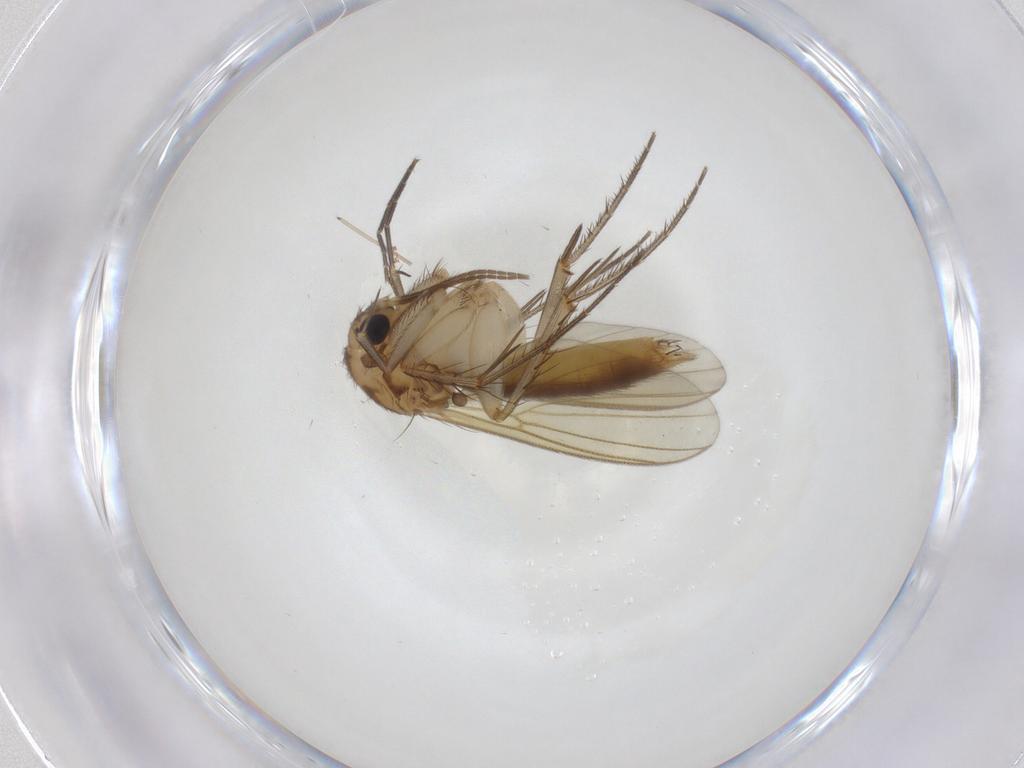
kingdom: Animalia
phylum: Arthropoda
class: Insecta
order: Diptera
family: Mycetophilidae
